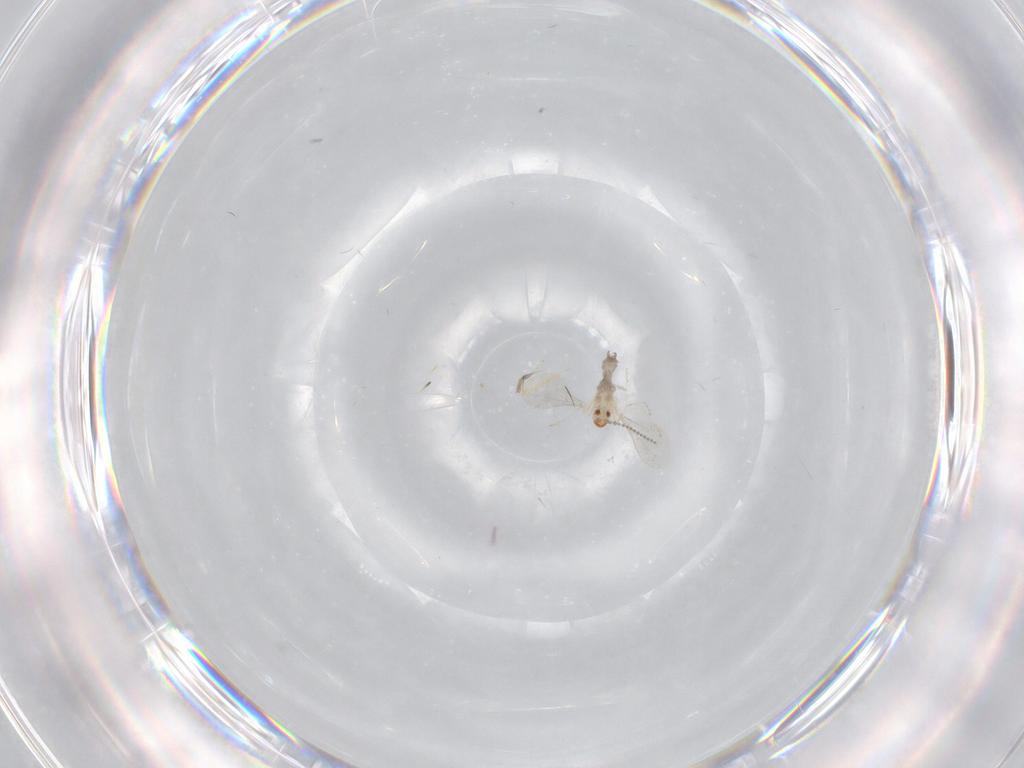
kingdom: Animalia
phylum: Arthropoda
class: Insecta
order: Diptera
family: Cecidomyiidae
